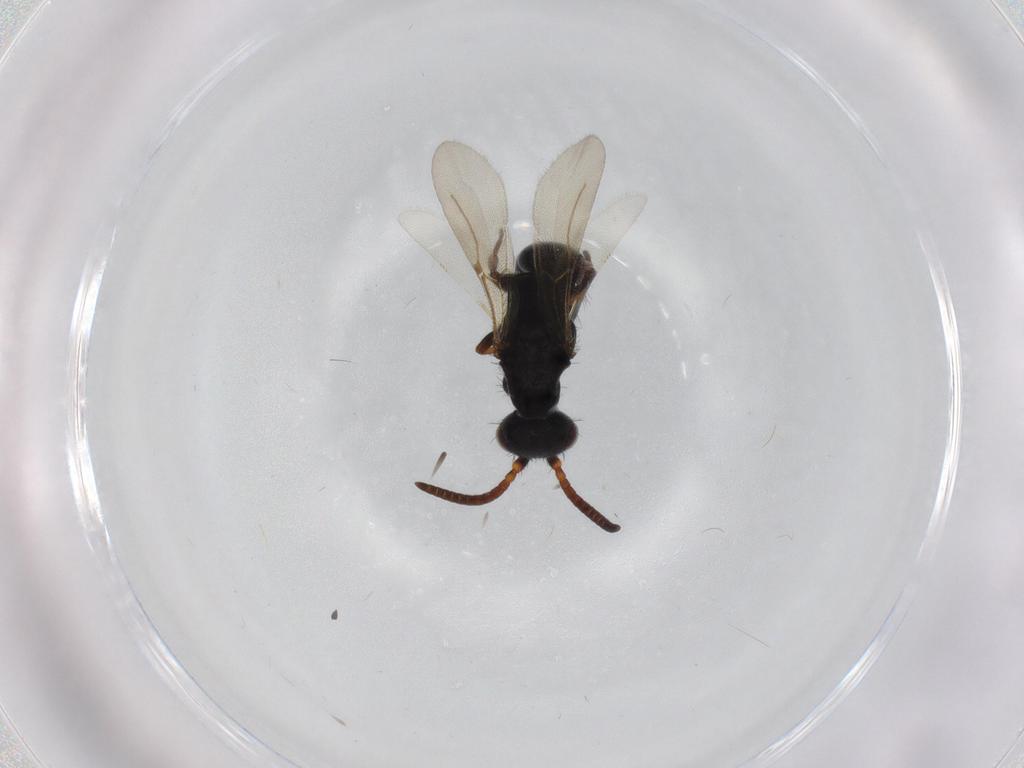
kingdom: Animalia
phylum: Arthropoda
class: Insecta
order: Hymenoptera
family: Bethylidae
